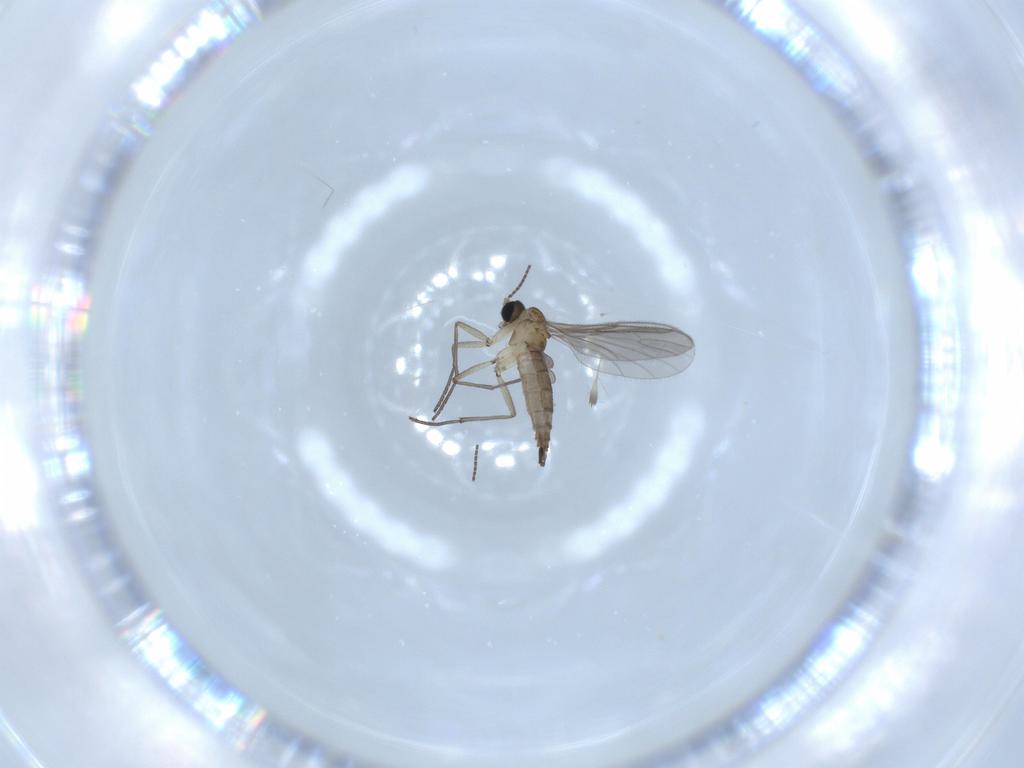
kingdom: Animalia
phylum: Arthropoda
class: Insecta
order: Diptera
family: Sciaridae
